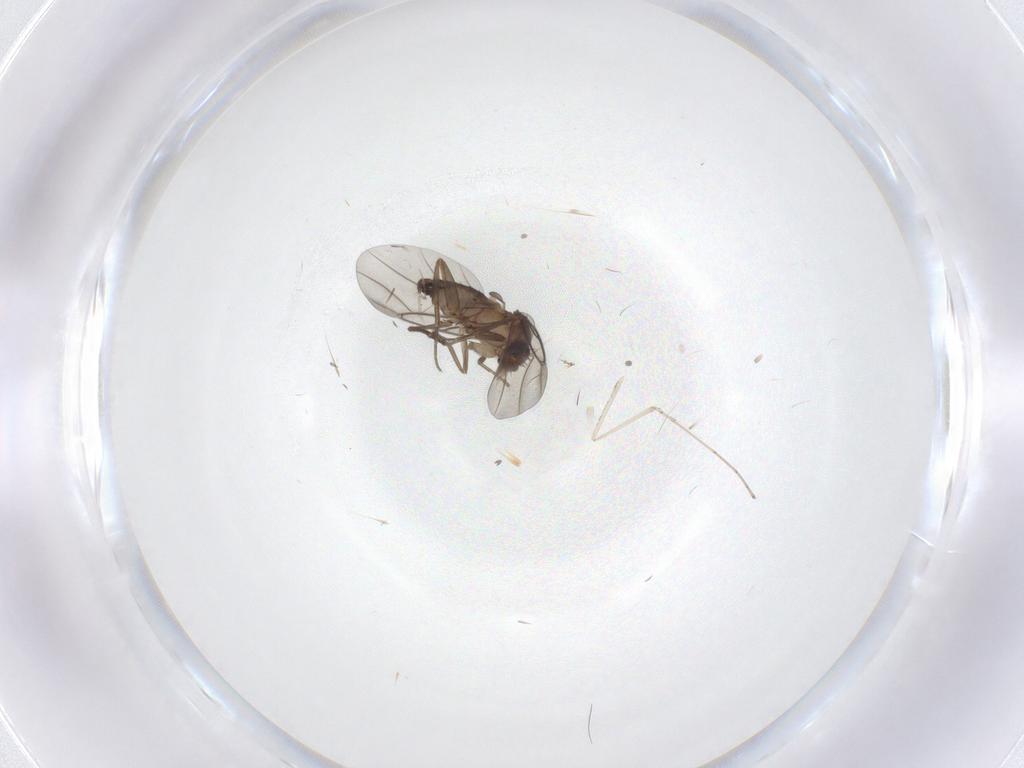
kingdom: Animalia
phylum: Arthropoda
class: Insecta
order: Diptera
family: Phoridae
